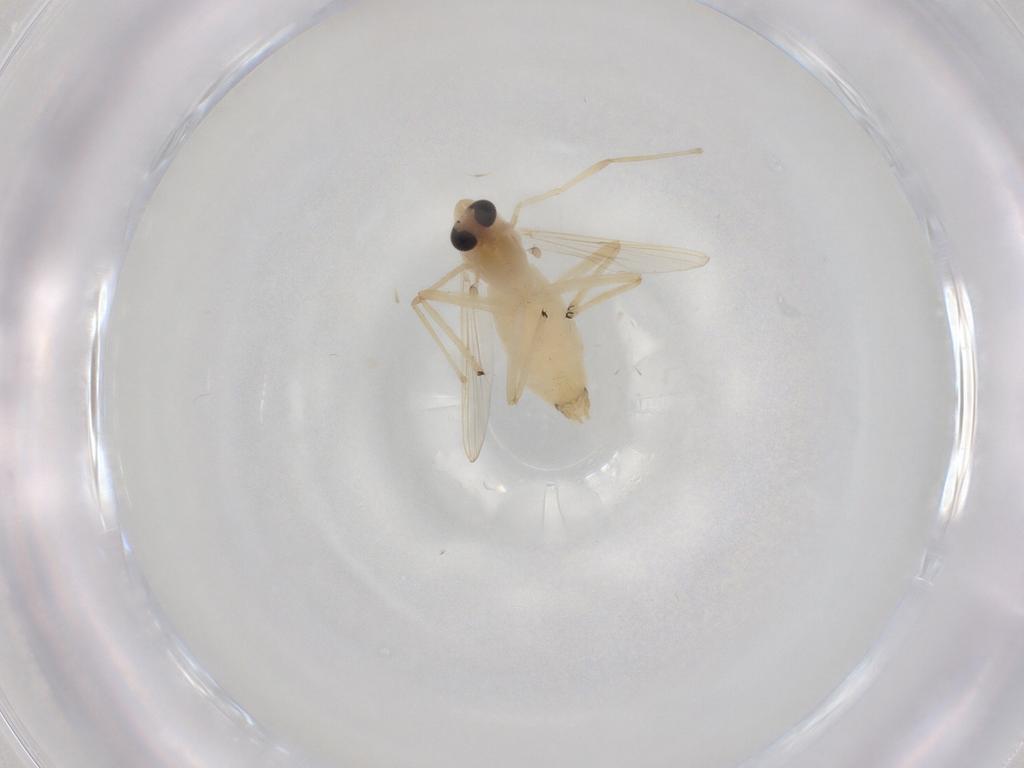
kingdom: Animalia
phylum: Arthropoda
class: Insecta
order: Diptera
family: Chironomidae
